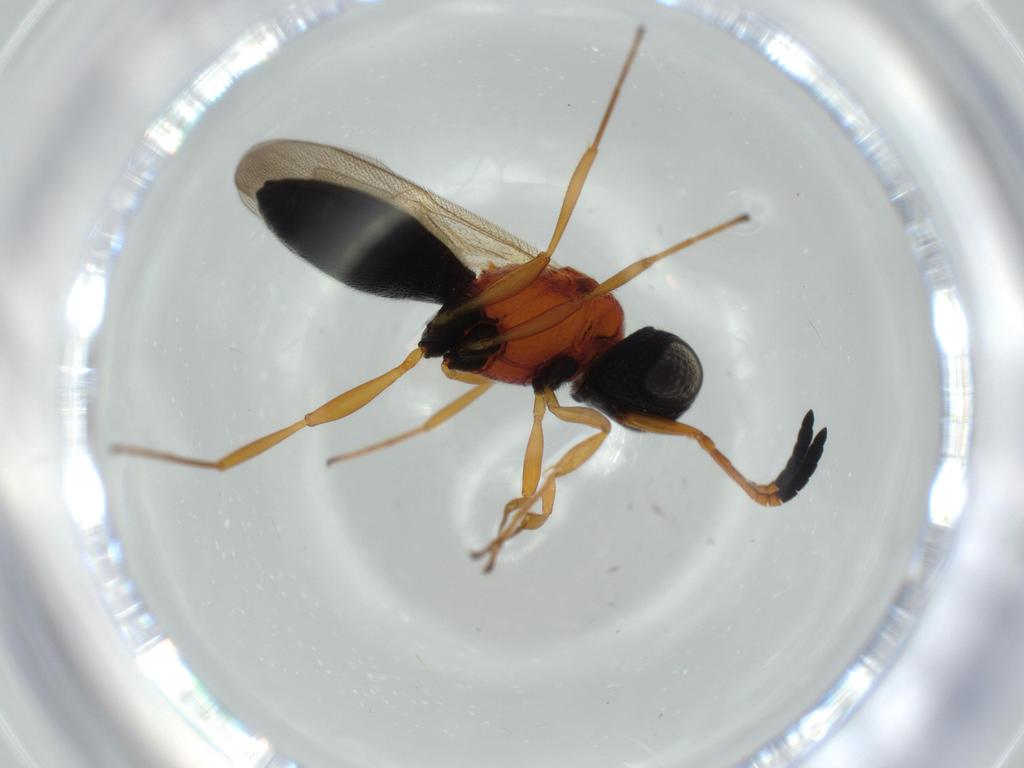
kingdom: Animalia
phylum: Arthropoda
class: Insecta
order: Hymenoptera
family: Scelionidae
